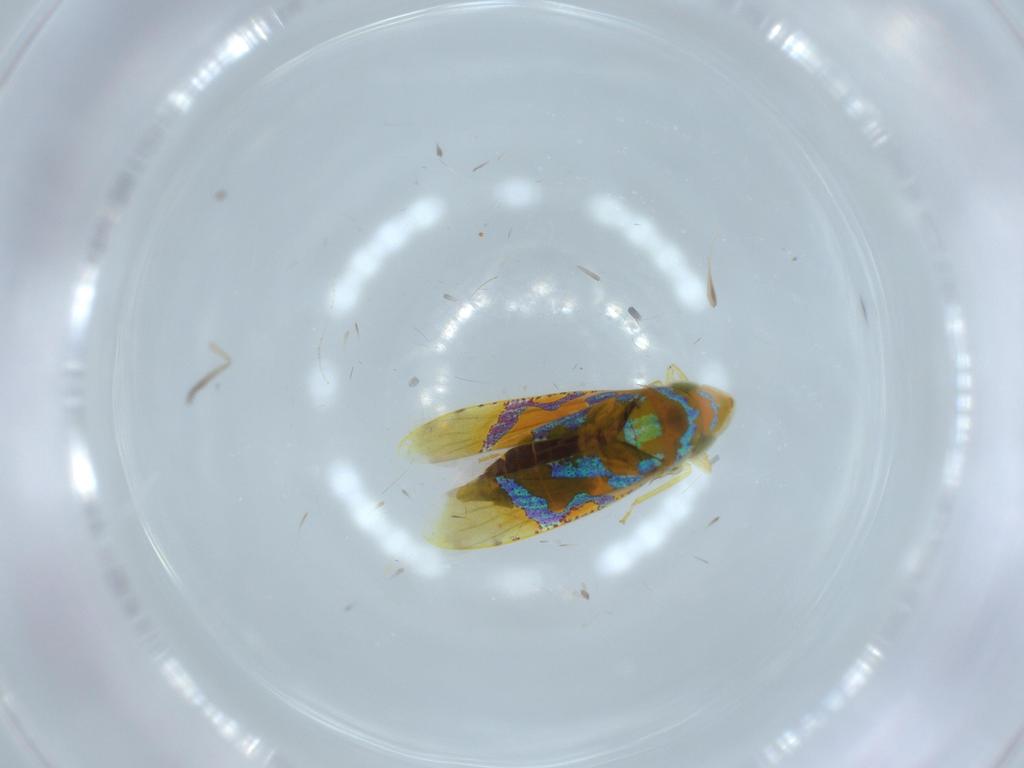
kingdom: Animalia
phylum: Arthropoda
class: Insecta
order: Hemiptera
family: Cicadellidae
